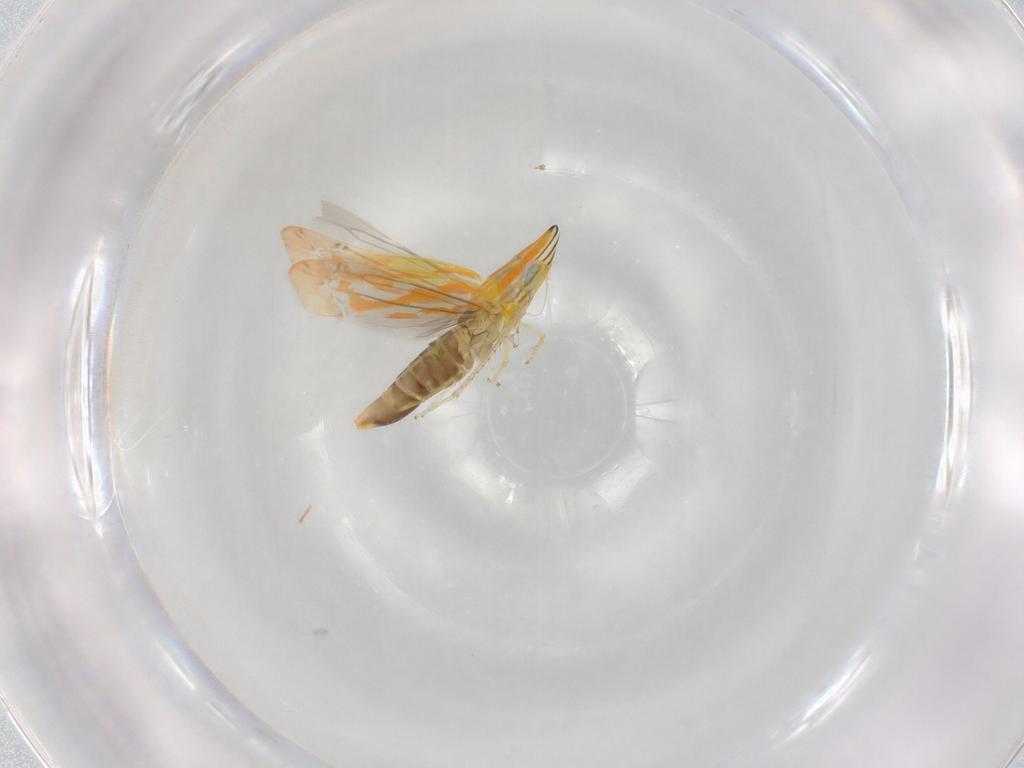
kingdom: Animalia
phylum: Arthropoda
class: Insecta
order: Hemiptera
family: Cicadellidae
